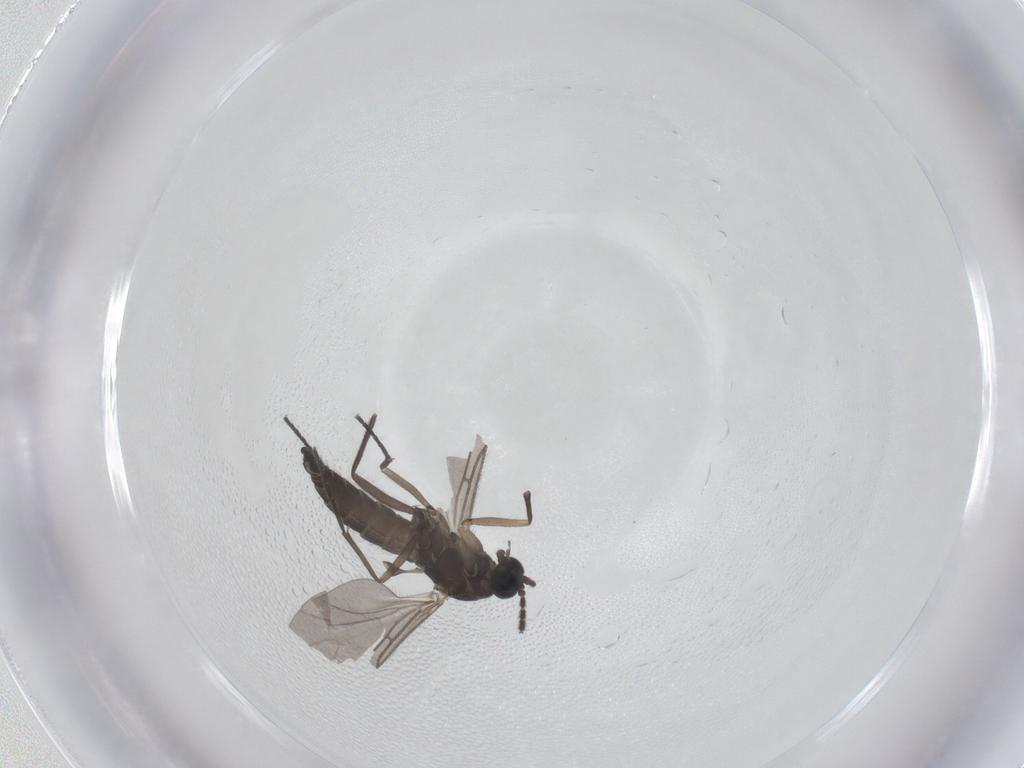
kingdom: Animalia
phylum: Arthropoda
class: Insecta
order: Diptera
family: Sciaridae
